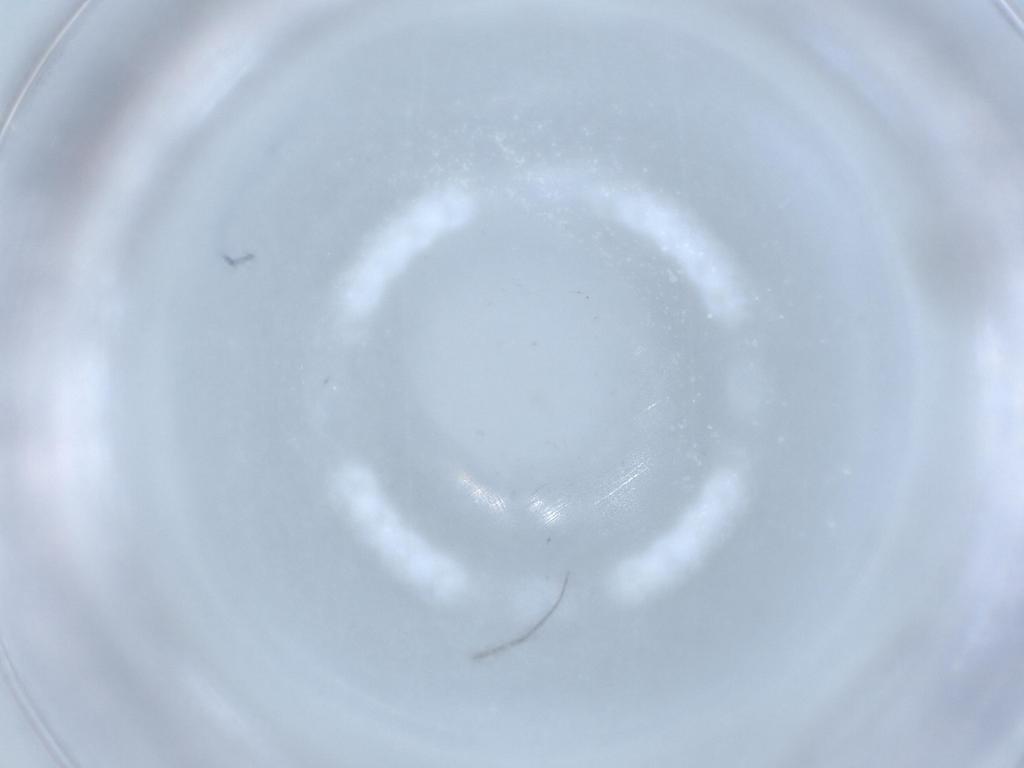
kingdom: Animalia
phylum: Arthropoda
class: Insecta
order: Diptera
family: Chironomidae
